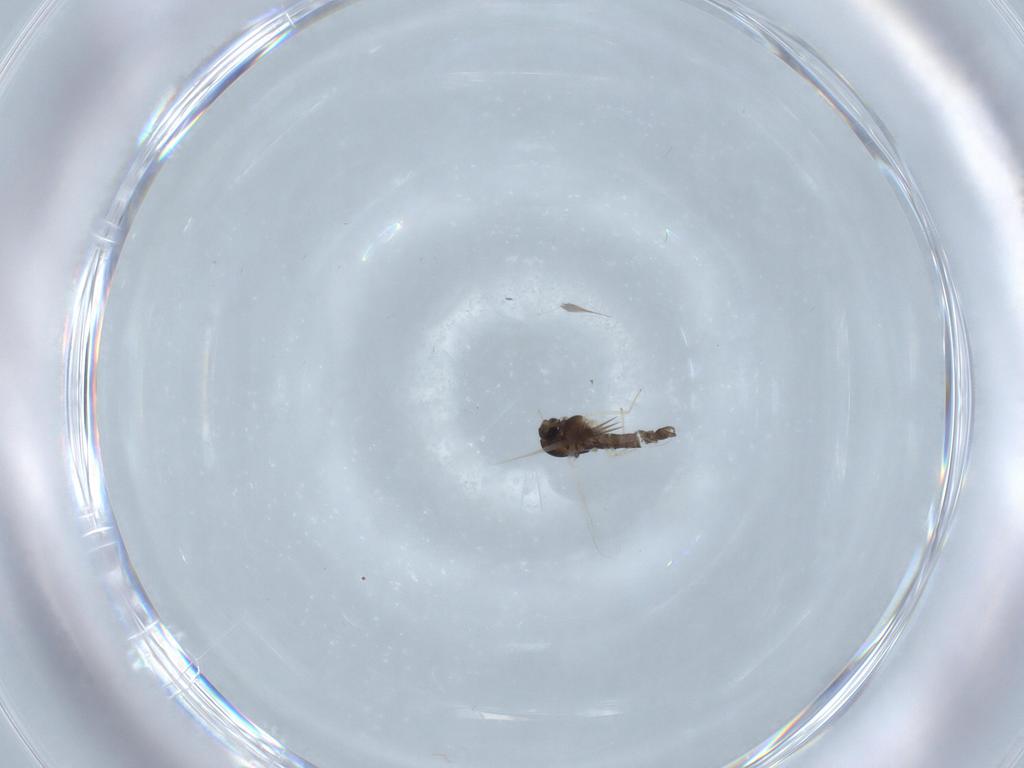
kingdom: Animalia
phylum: Arthropoda
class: Insecta
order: Diptera
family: Chironomidae
